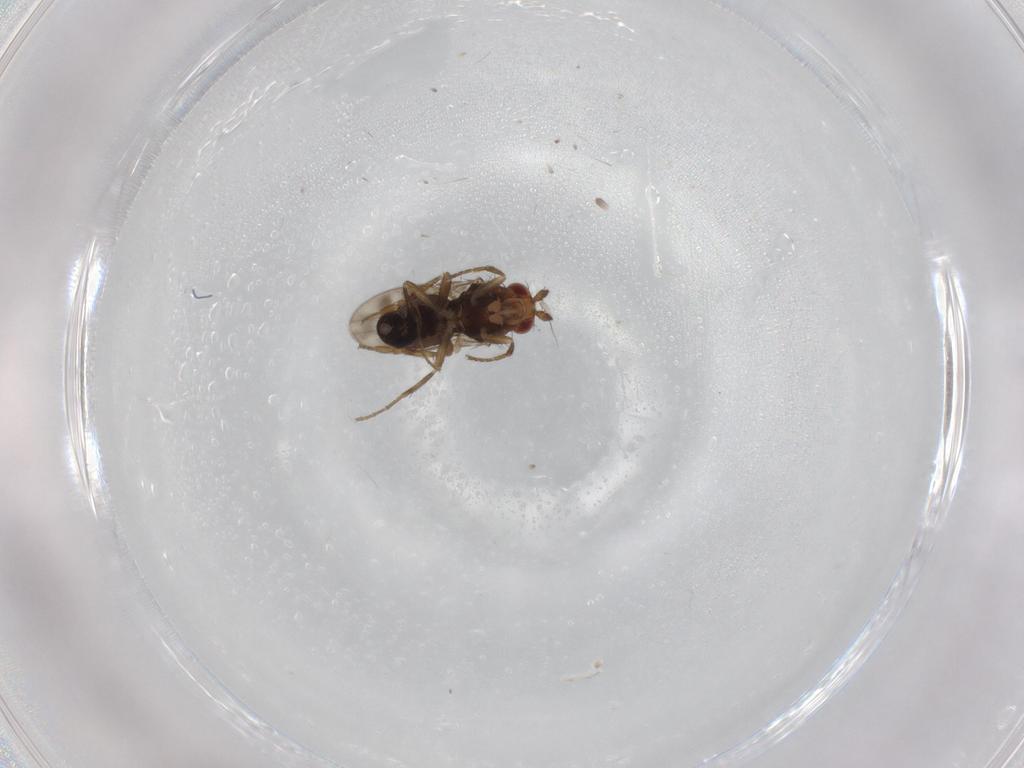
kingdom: Animalia
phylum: Arthropoda
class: Insecta
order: Diptera
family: Sphaeroceridae
